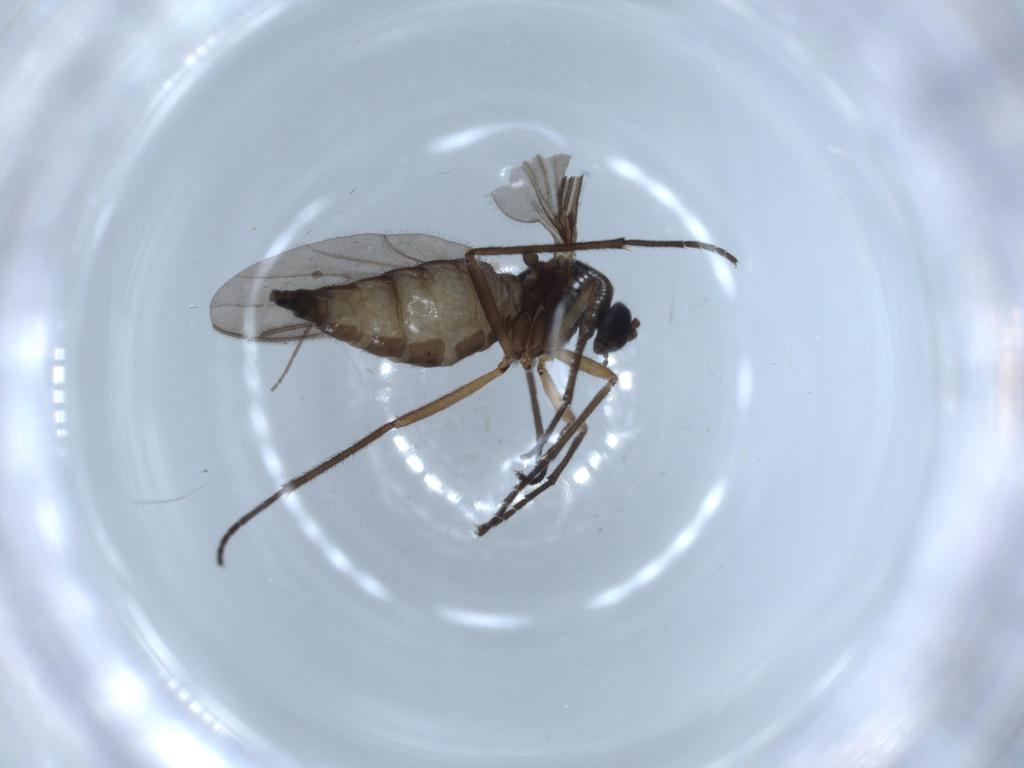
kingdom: Animalia
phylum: Arthropoda
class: Insecta
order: Diptera
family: Sciaridae
